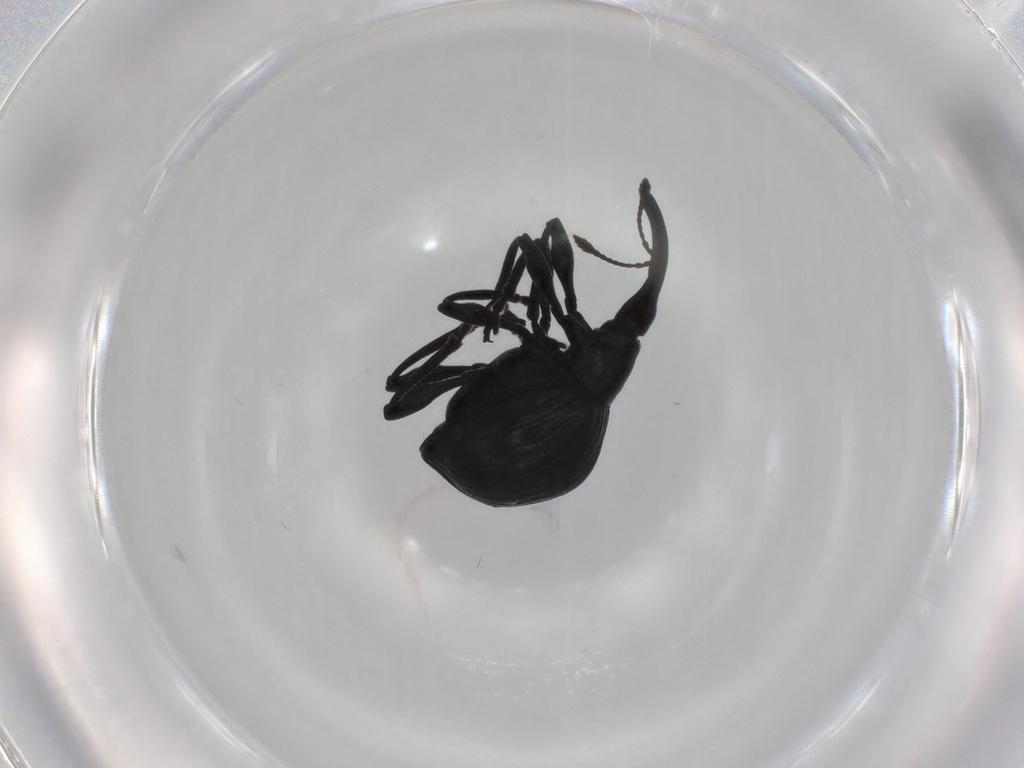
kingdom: Animalia
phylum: Arthropoda
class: Insecta
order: Coleoptera
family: Apionidae
